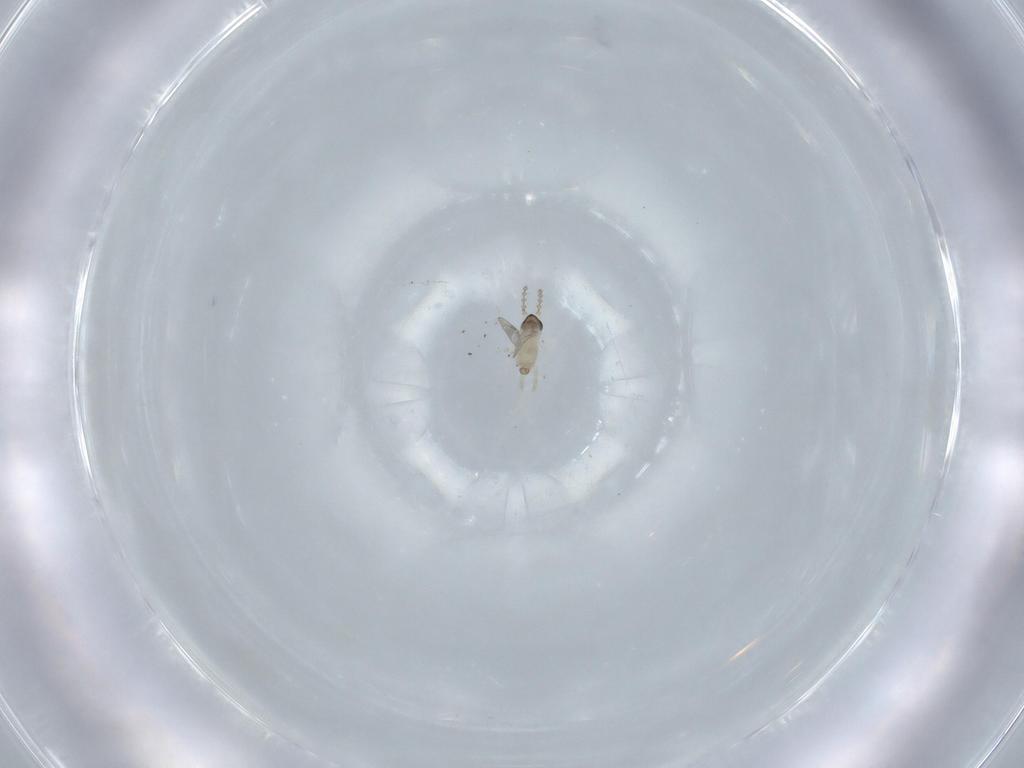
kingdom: Animalia
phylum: Arthropoda
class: Insecta
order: Diptera
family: Cecidomyiidae
